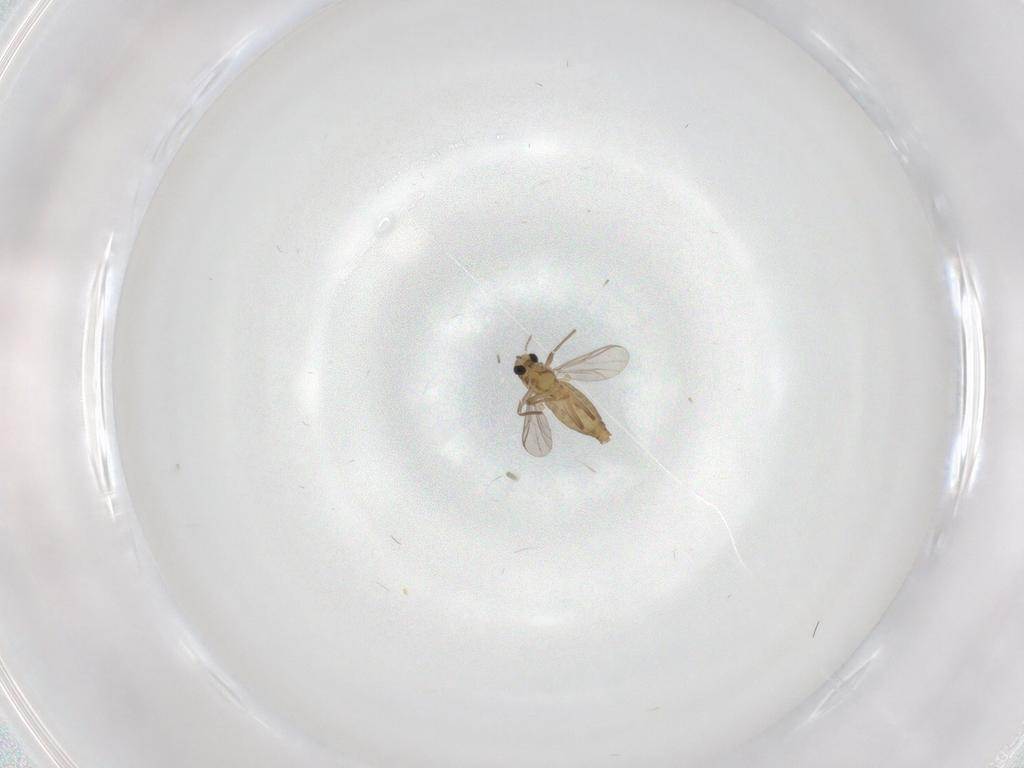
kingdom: Animalia
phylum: Arthropoda
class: Insecta
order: Diptera
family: Chironomidae
